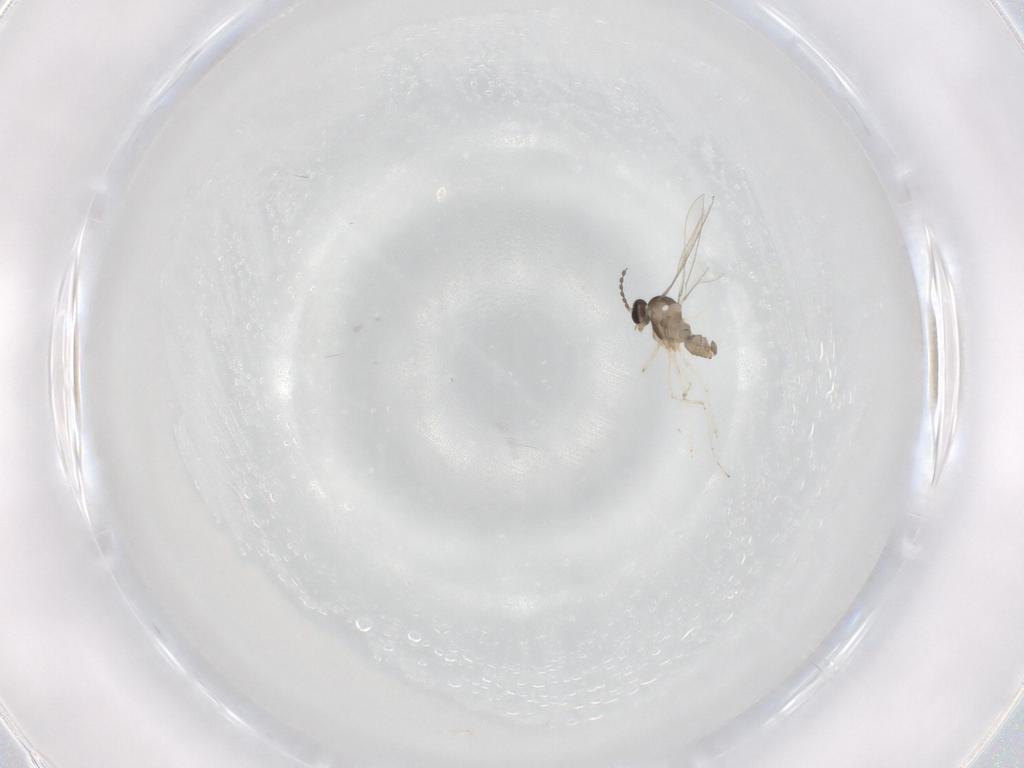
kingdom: Animalia
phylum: Arthropoda
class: Insecta
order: Diptera
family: Cecidomyiidae
